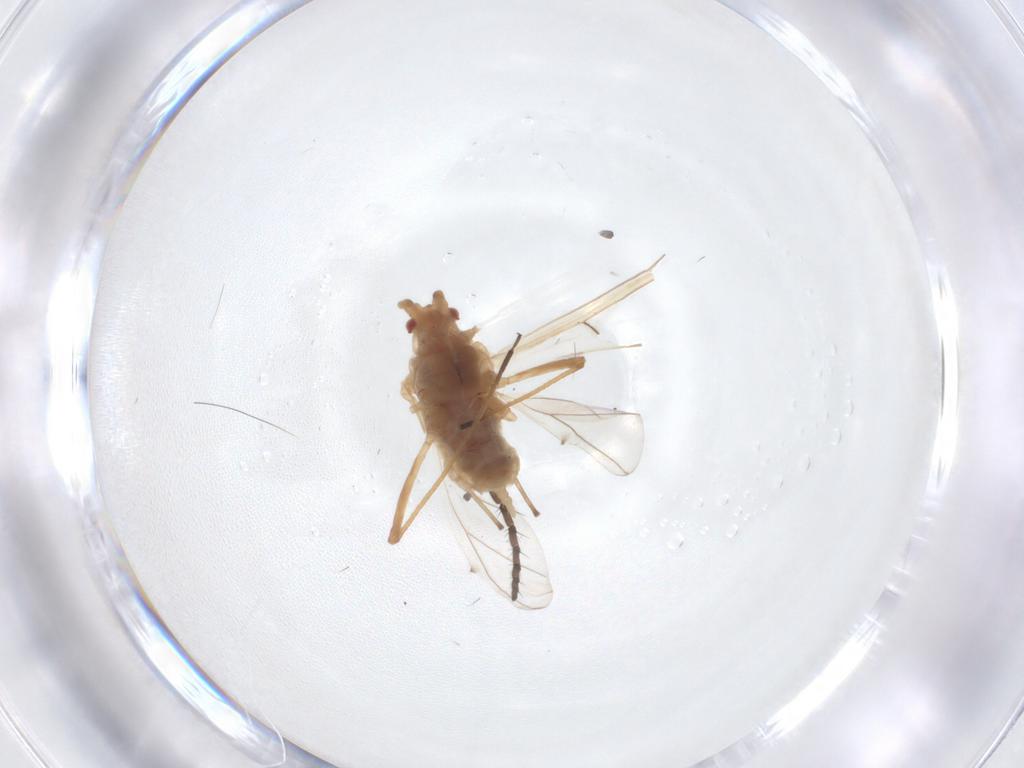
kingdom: Animalia
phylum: Arthropoda
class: Insecta
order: Hemiptera
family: Aphididae
